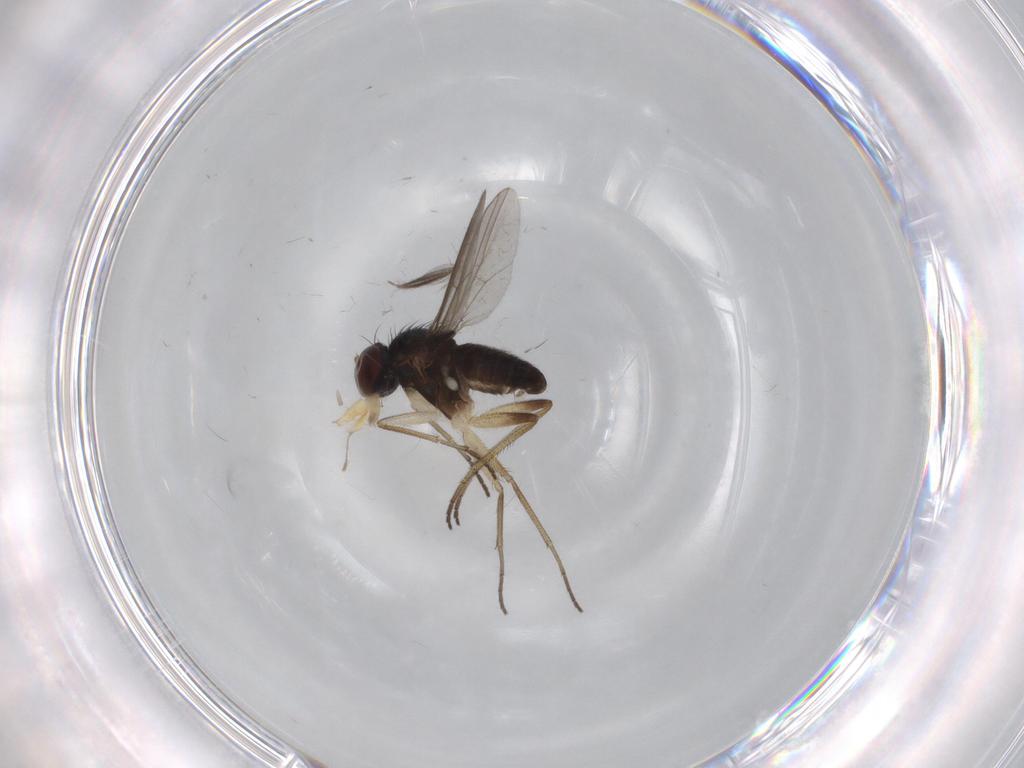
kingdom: Animalia
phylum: Arthropoda
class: Insecta
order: Diptera
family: Dolichopodidae
